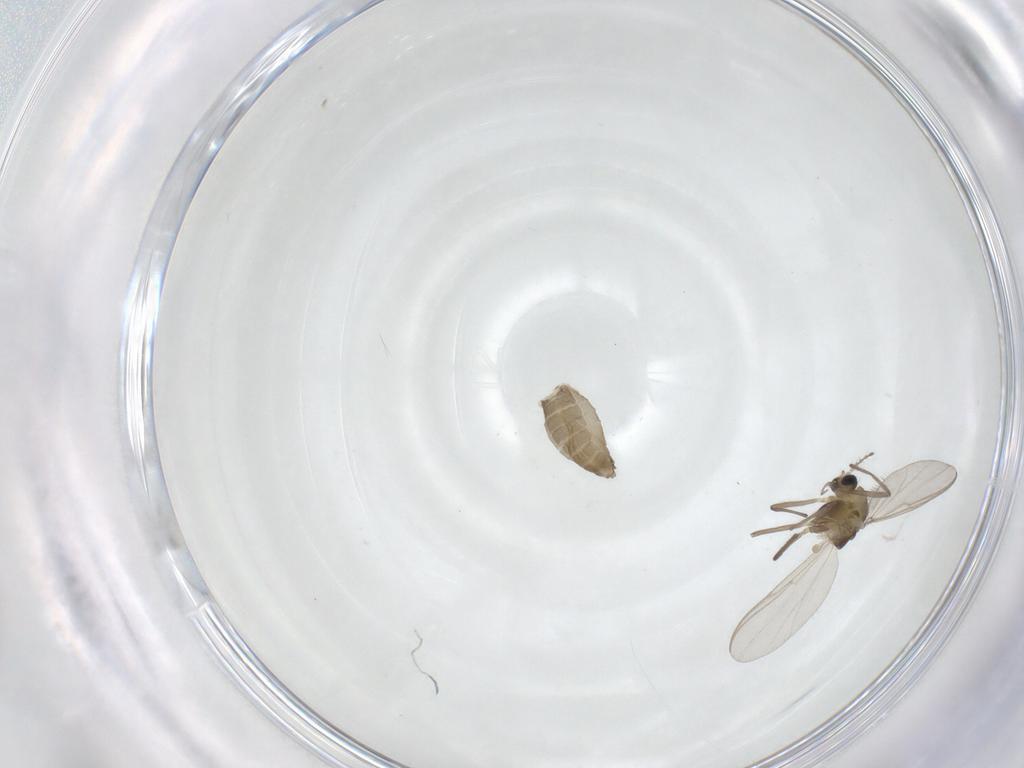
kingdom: Animalia
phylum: Arthropoda
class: Insecta
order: Diptera
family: Chironomidae
